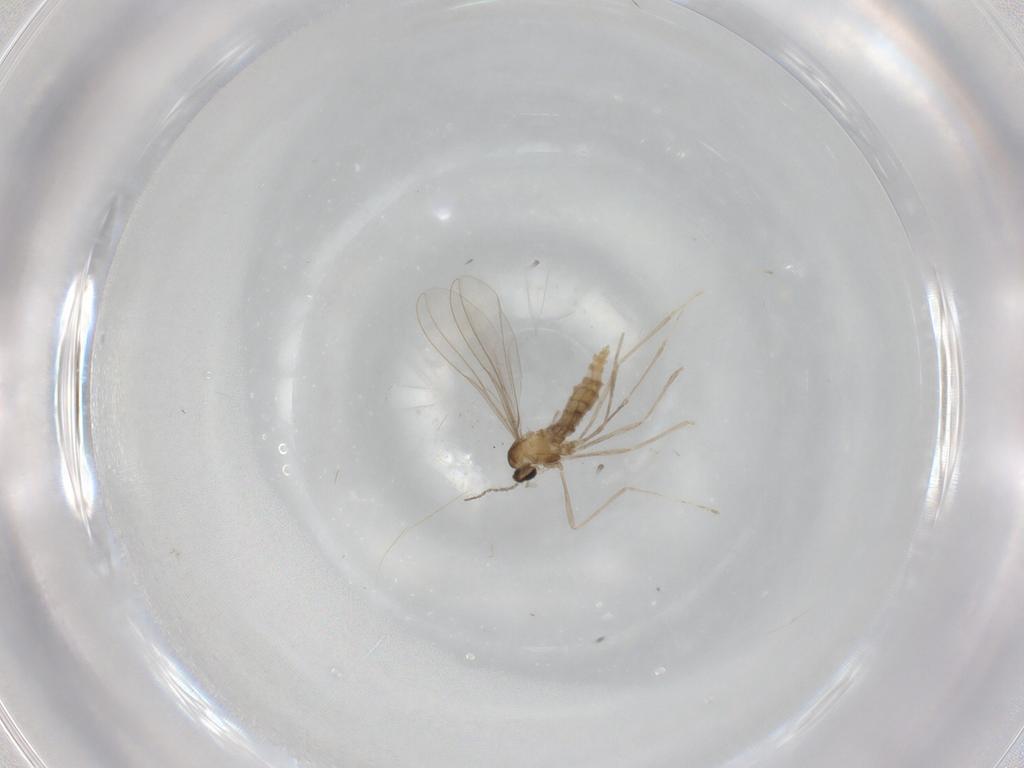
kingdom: Animalia
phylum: Arthropoda
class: Insecta
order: Diptera
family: Cecidomyiidae
